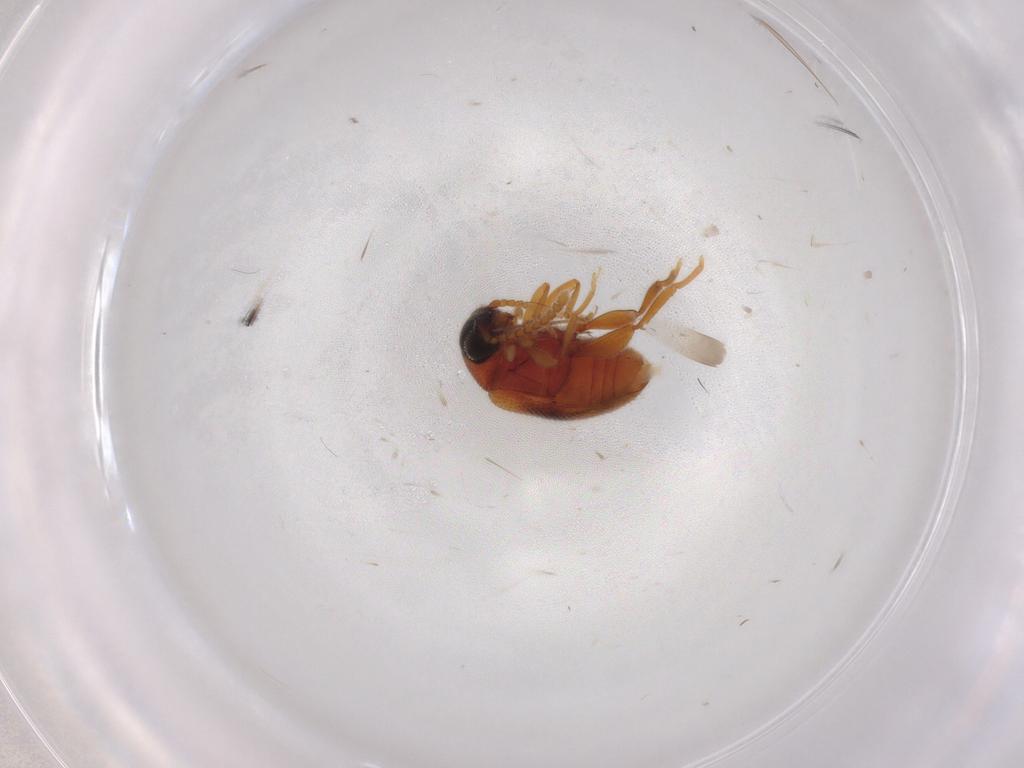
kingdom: Animalia
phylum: Arthropoda
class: Insecta
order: Coleoptera
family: Aderidae
